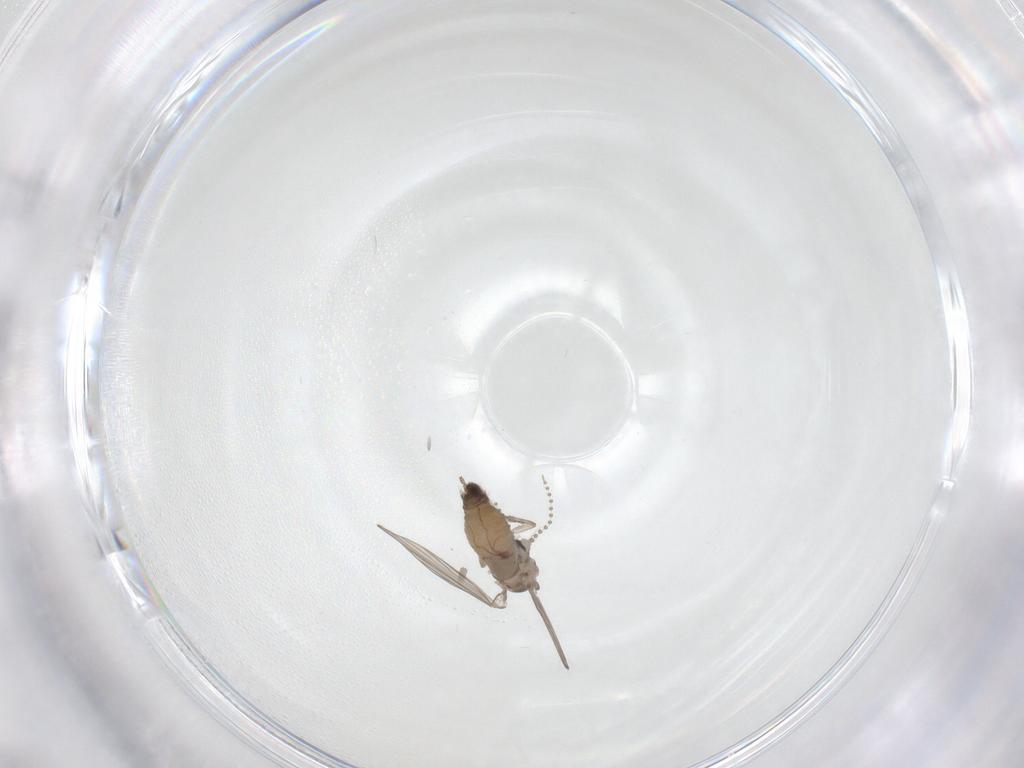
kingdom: Animalia
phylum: Arthropoda
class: Insecta
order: Diptera
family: Psychodidae
